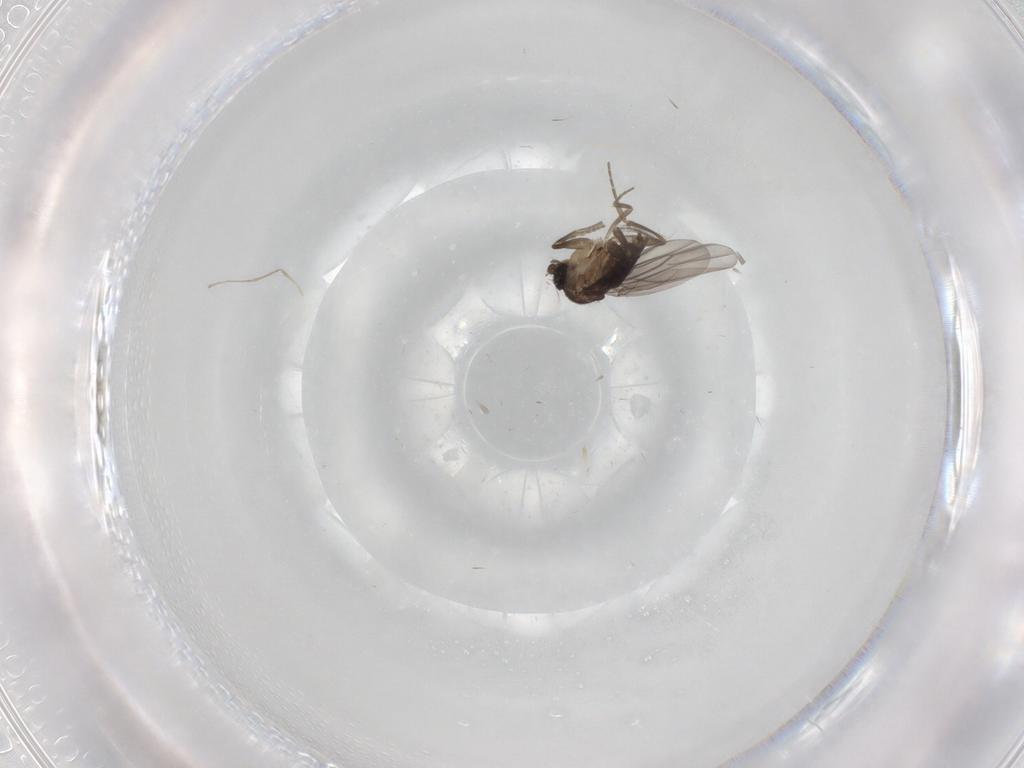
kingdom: Animalia
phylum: Arthropoda
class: Insecta
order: Diptera
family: Ceratopogonidae
